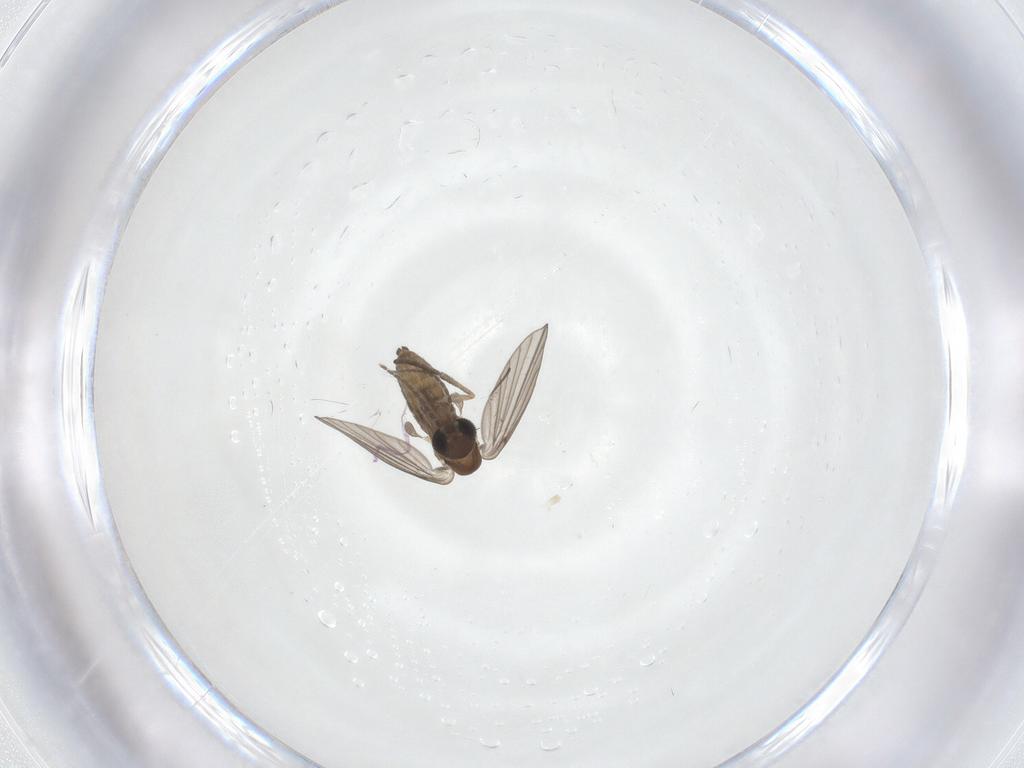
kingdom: Animalia
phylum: Arthropoda
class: Insecta
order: Diptera
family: Psychodidae
